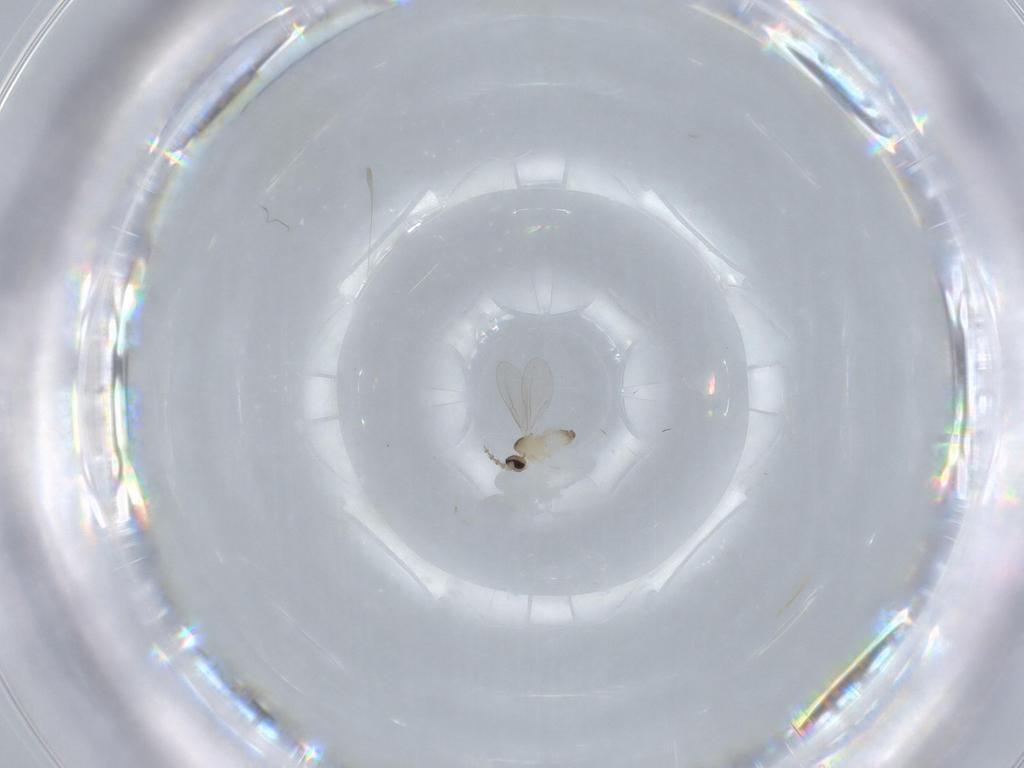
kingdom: Animalia
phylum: Arthropoda
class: Insecta
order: Diptera
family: Cecidomyiidae
